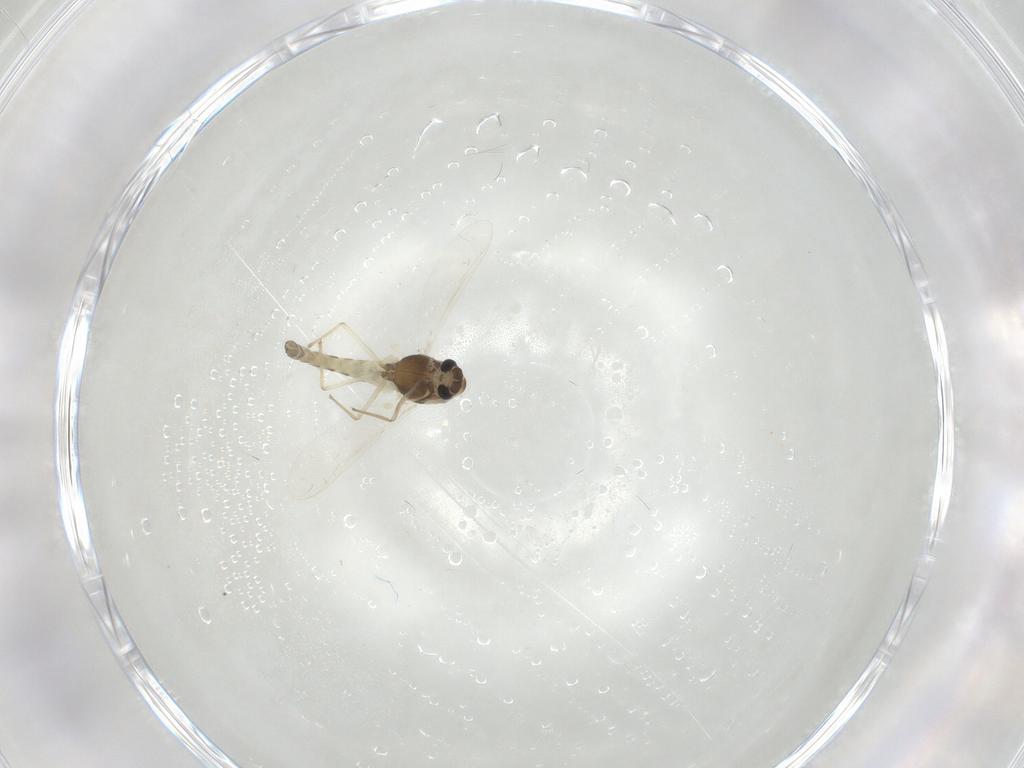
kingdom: Animalia
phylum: Arthropoda
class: Insecta
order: Diptera
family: Chironomidae
